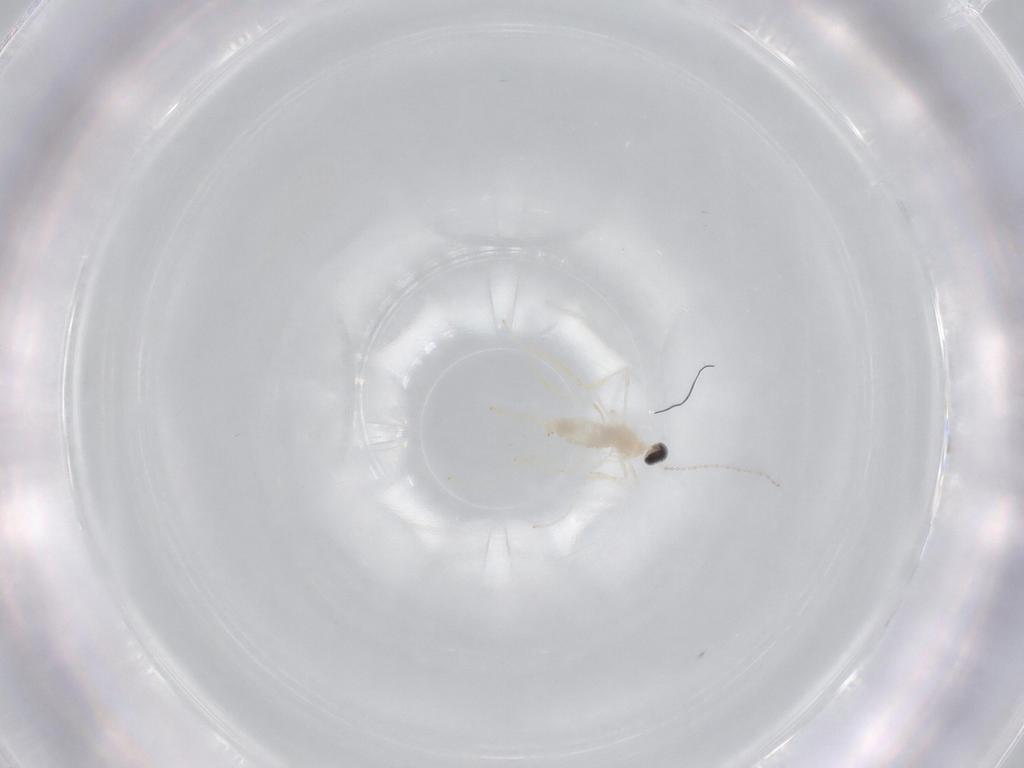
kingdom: Animalia
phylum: Arthropoda
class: Insecta
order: Diptera
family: Cecidomyiidae
